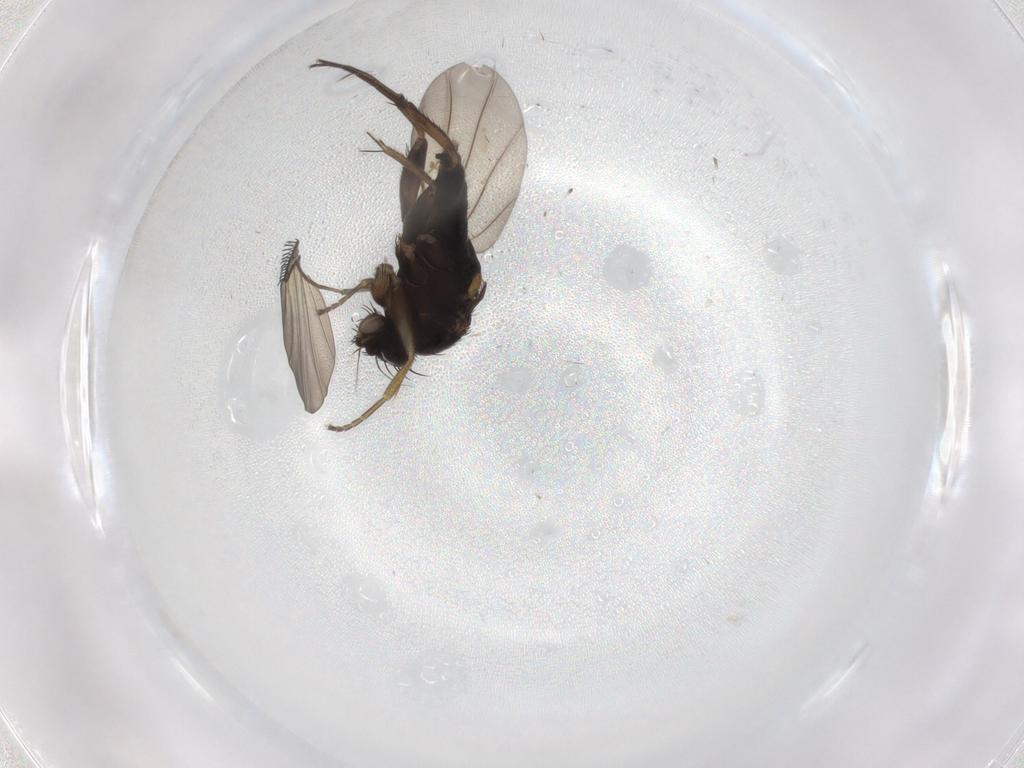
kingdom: Animalia
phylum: Arthropoda
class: Insecta
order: Diptera
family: Phoridae
